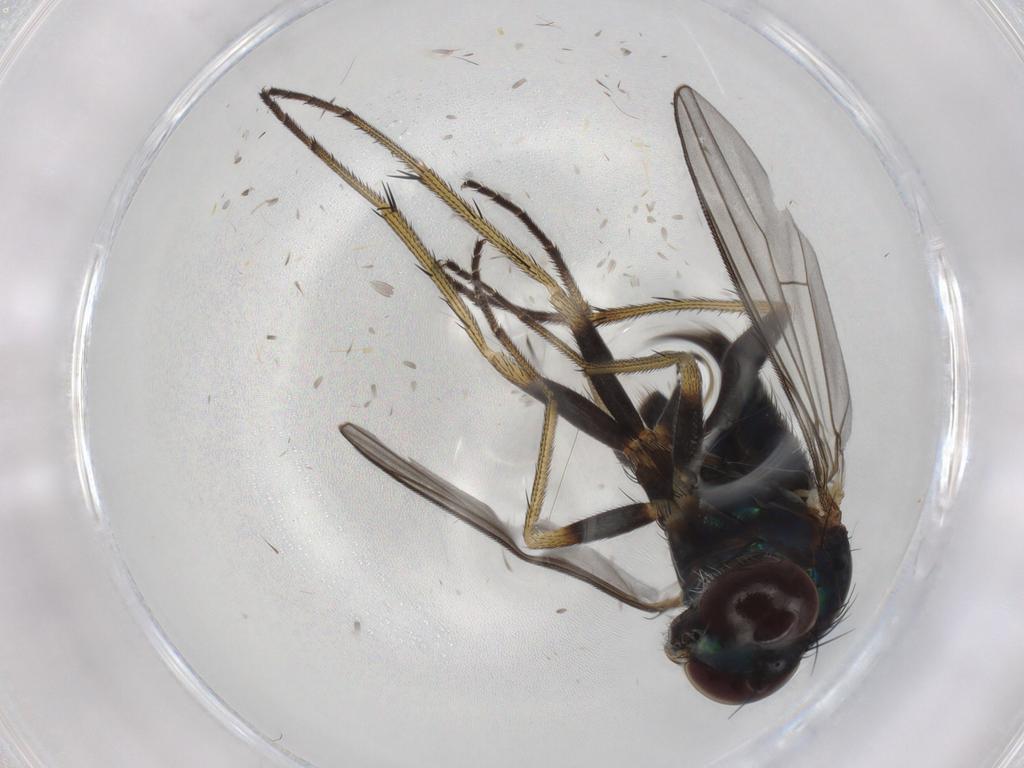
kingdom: Animalia
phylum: Arthropoda
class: Insecta
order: Diptera
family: Dolichopodidae
